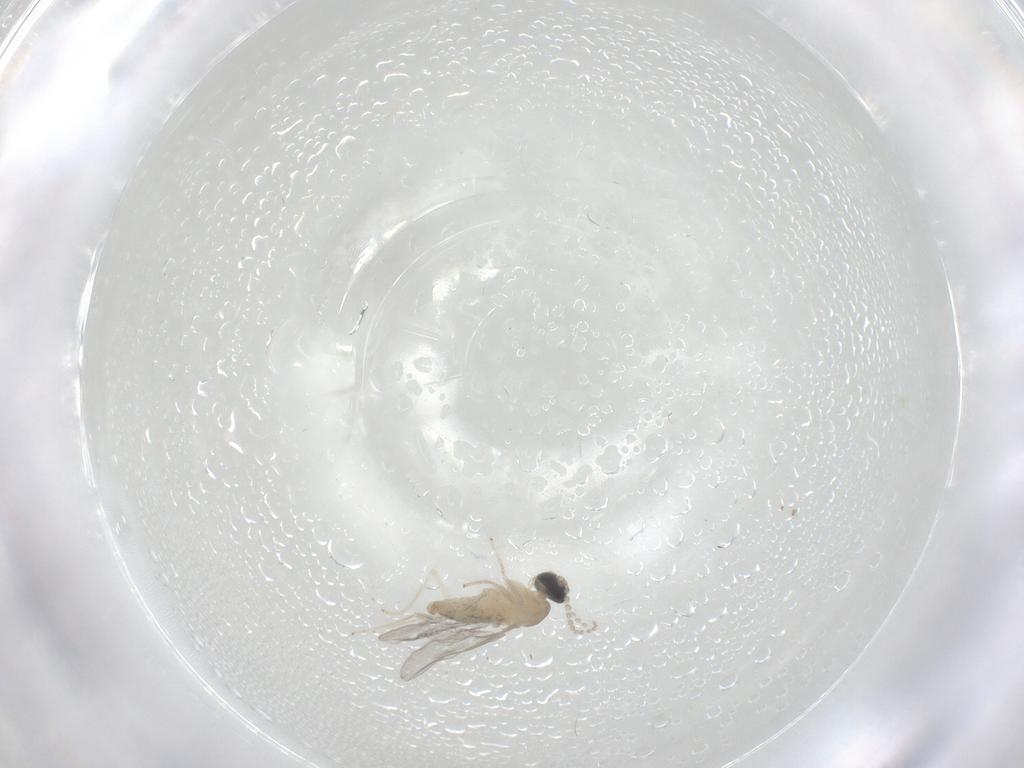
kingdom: Animalia
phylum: Arthropoda
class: Insecta
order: Diptera
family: Cecidomyiidae
